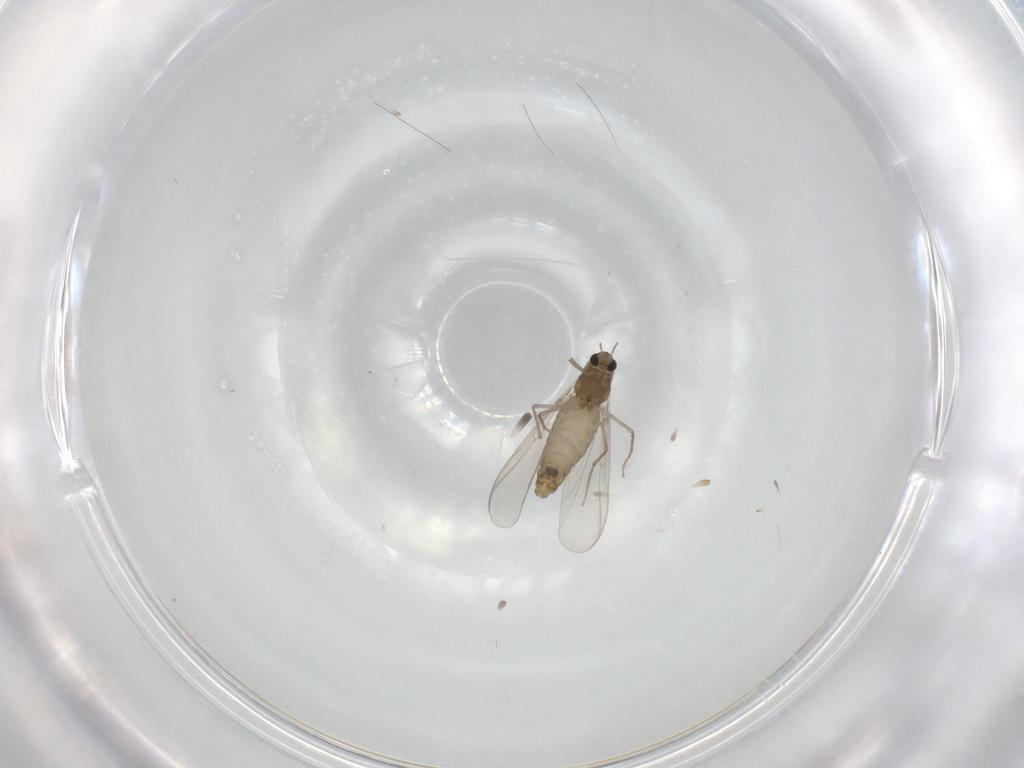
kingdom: Animalia
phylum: Arthropoda
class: Insecta
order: Diptera
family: Chironomidae
